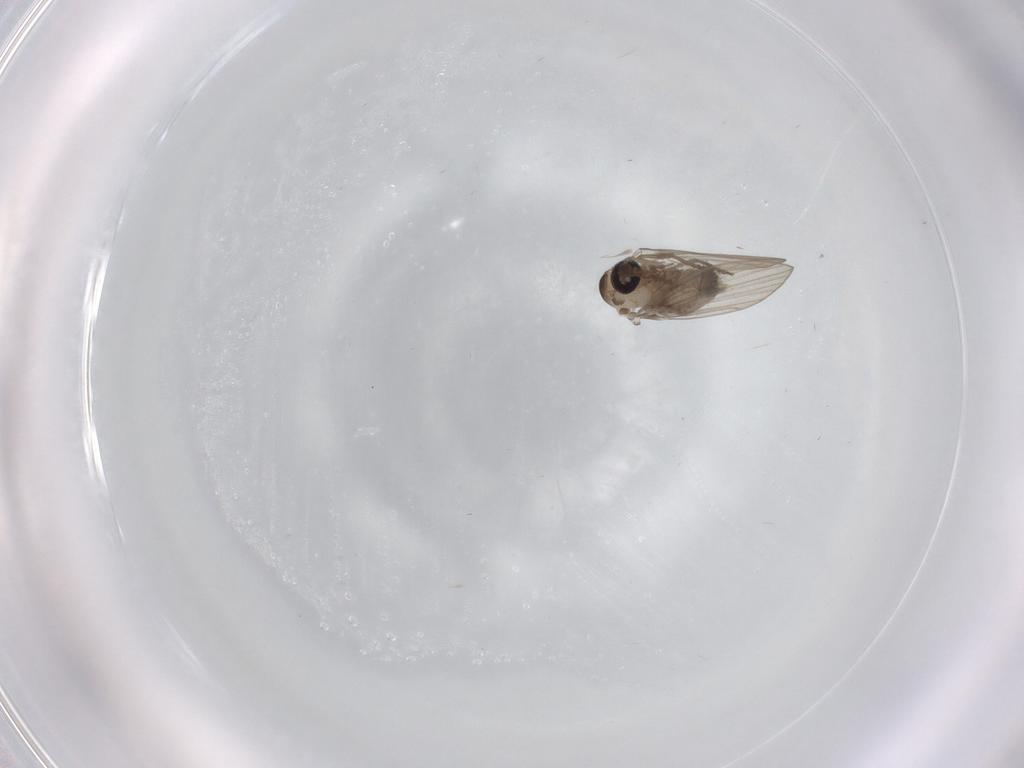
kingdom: Animalia
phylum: Arthropoda
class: Insecta
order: Diptera
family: Psychodidae
